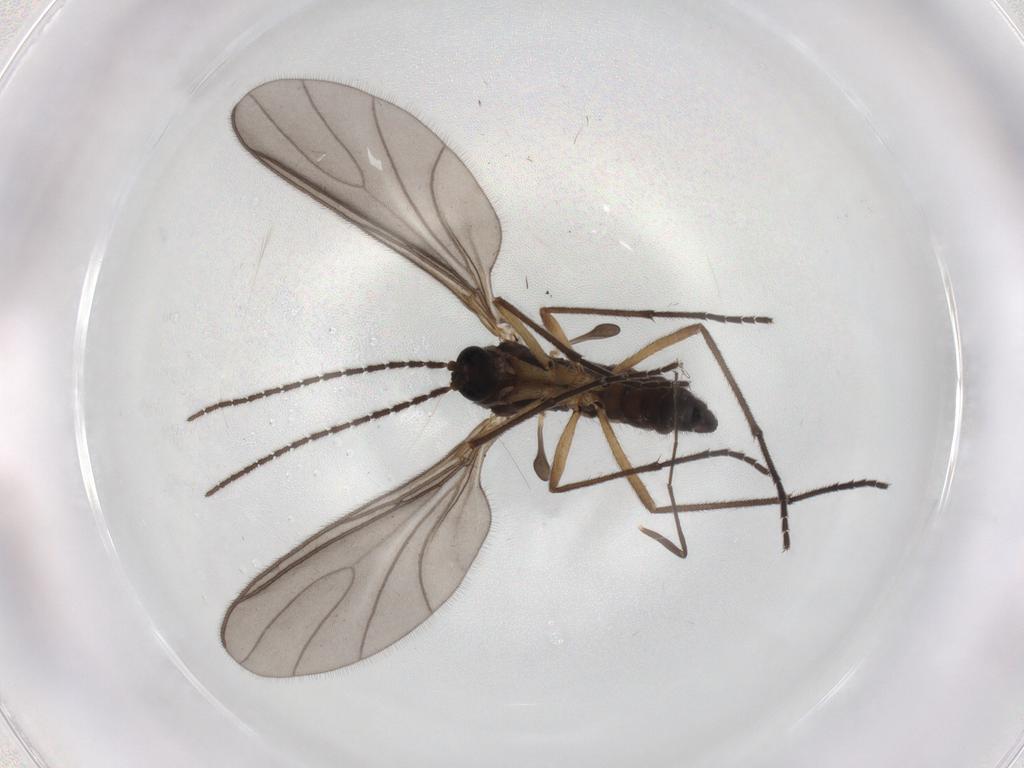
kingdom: Animalia
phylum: Arthropoda
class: Insecta
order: Diptera
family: Sciaridae
